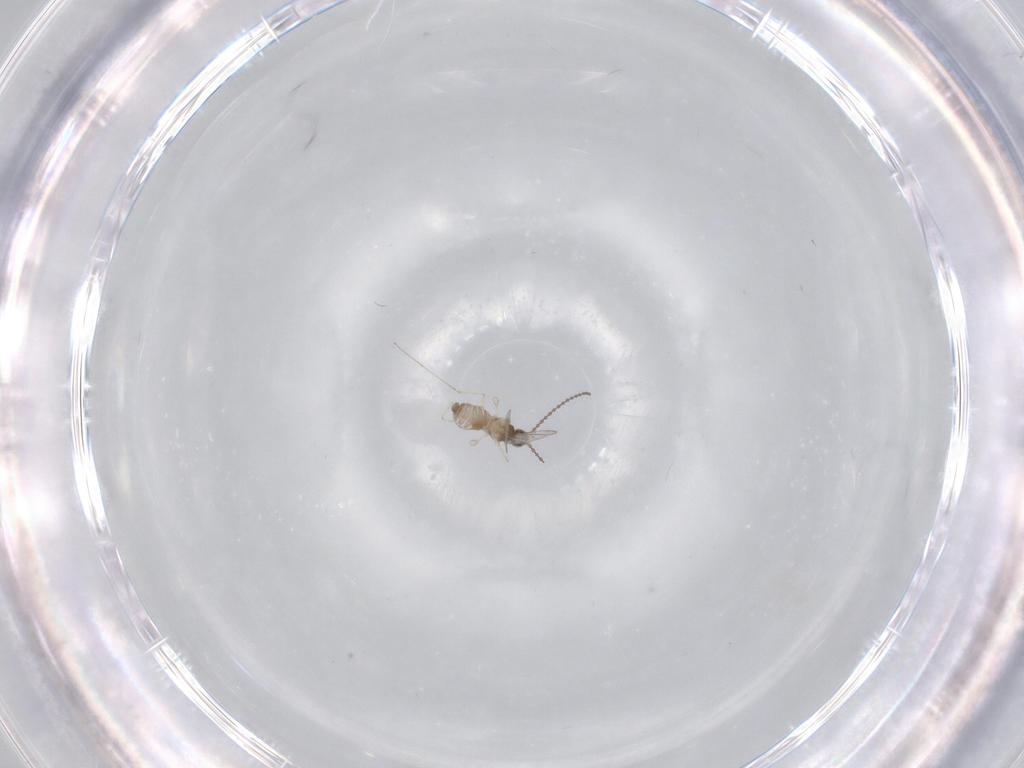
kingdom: Animalia
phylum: Arthropoda
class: Insecta
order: Diptera
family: Cecidomyiidae
